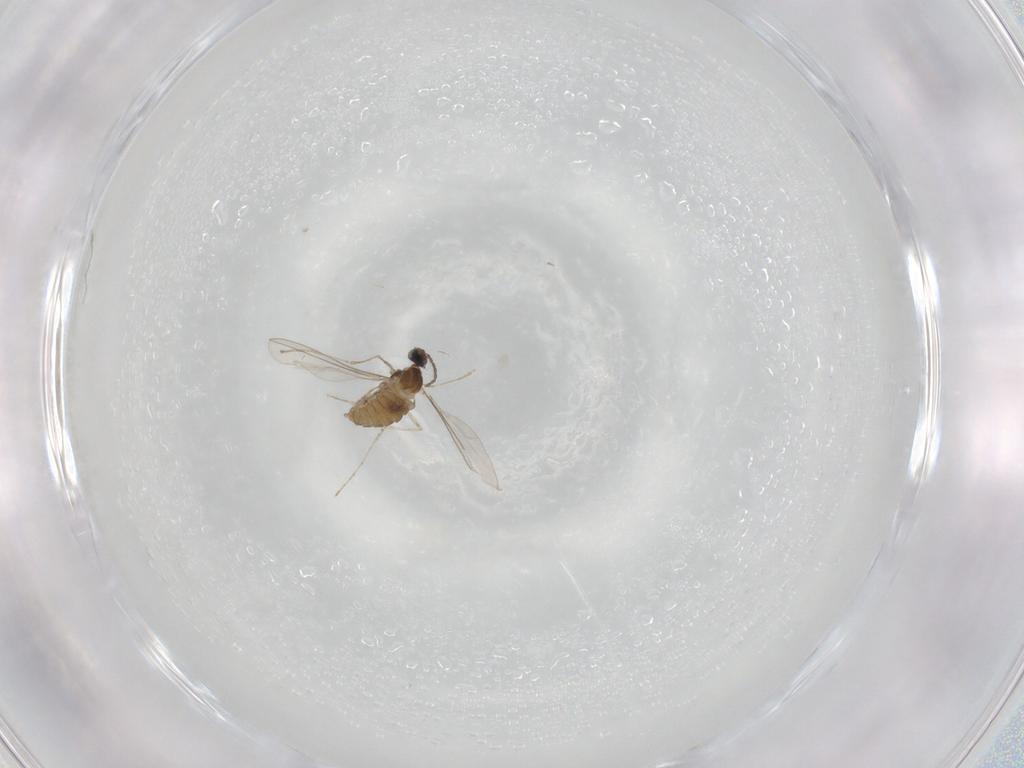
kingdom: Animalia
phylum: Arthropoda
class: Insecta
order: Diptera
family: Cecidomyiidae
